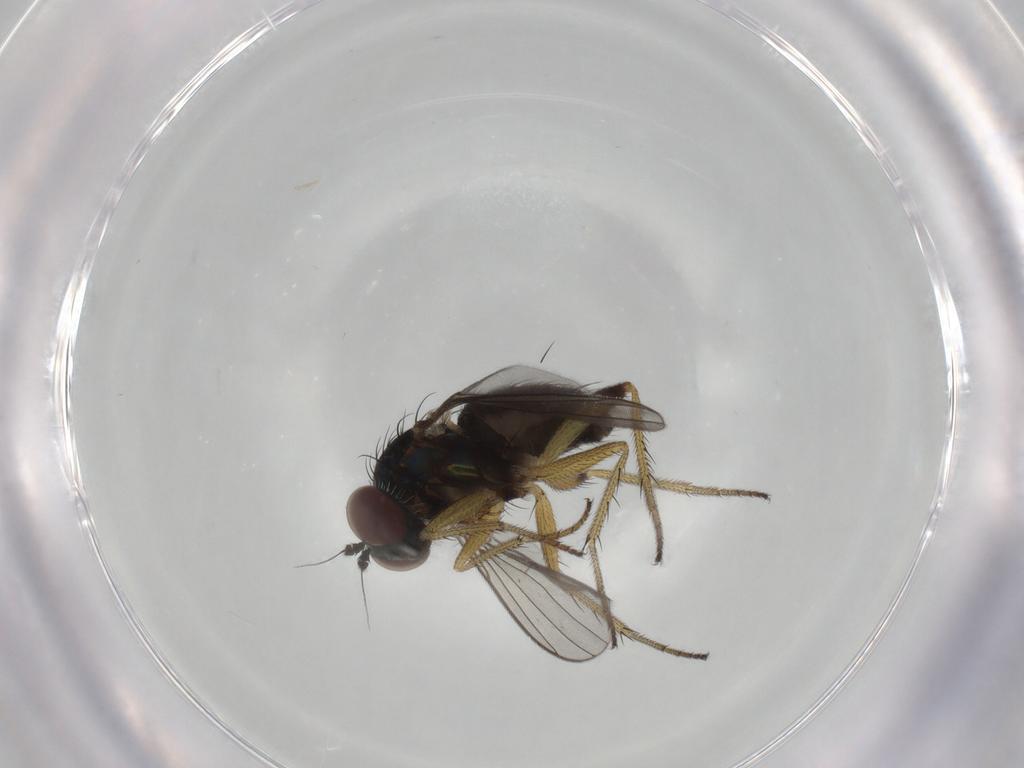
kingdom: Animalia
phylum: Arthropoda
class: Insecta
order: Diptera
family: Dolichopodidae
